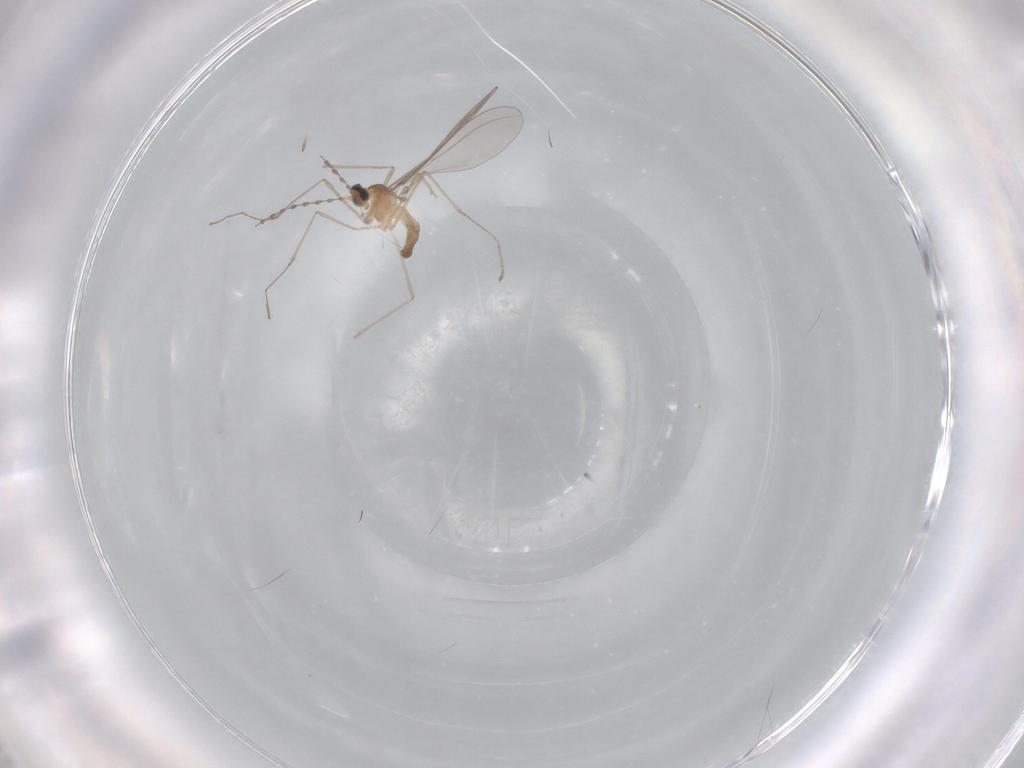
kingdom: Animalia
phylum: Arthropoda
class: Insecta
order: Diptera
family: Cecidomyiidae
